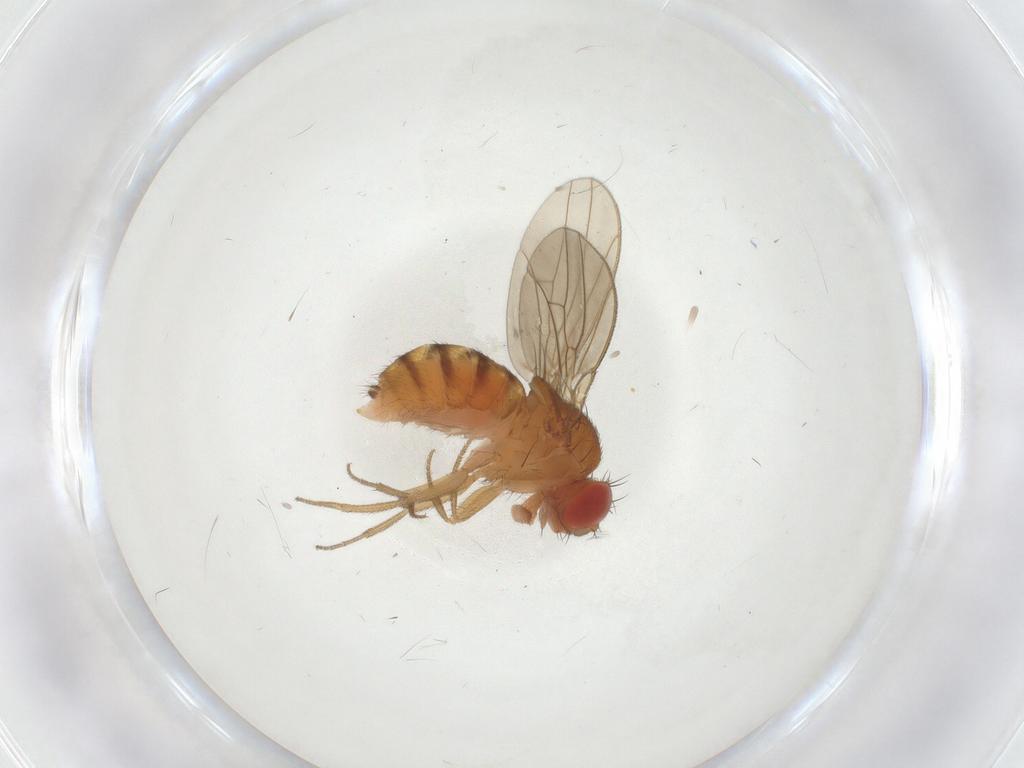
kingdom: Animalia
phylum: Arthropoda
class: Insecta
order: Diptera
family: Drosophilidae
